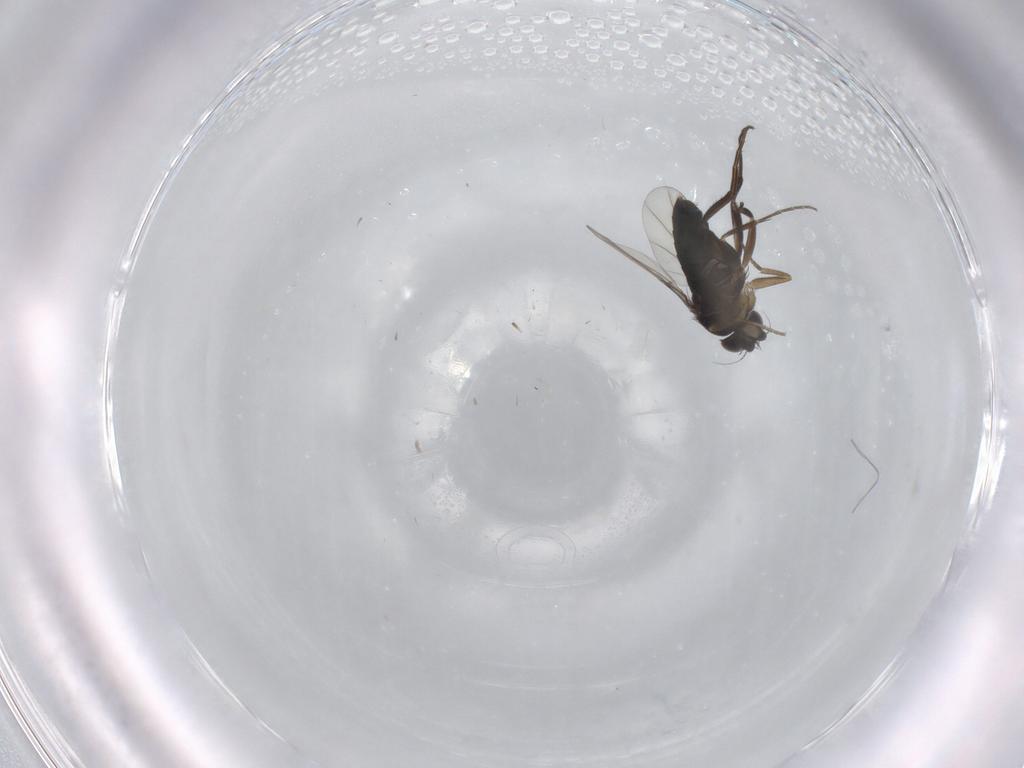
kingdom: Animalia
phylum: Arthropoda
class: Insecta
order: Diptera
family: Phoridae
